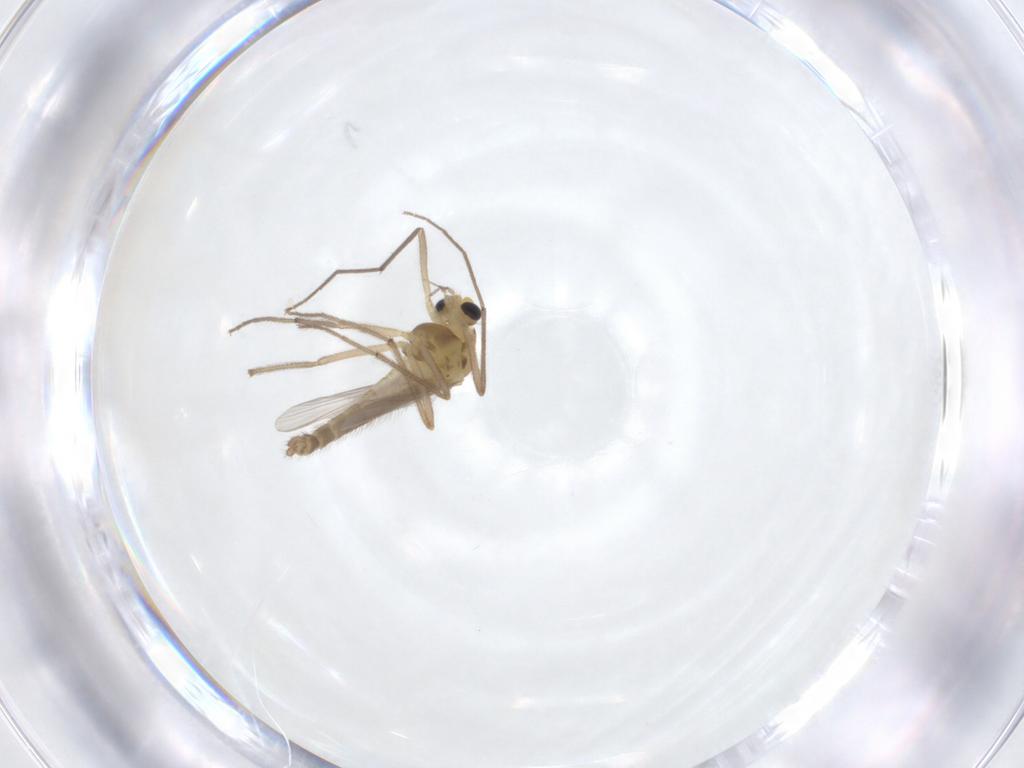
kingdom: Animalia
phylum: Arthropoda
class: Insecta
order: Diptera
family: Chironomidae
